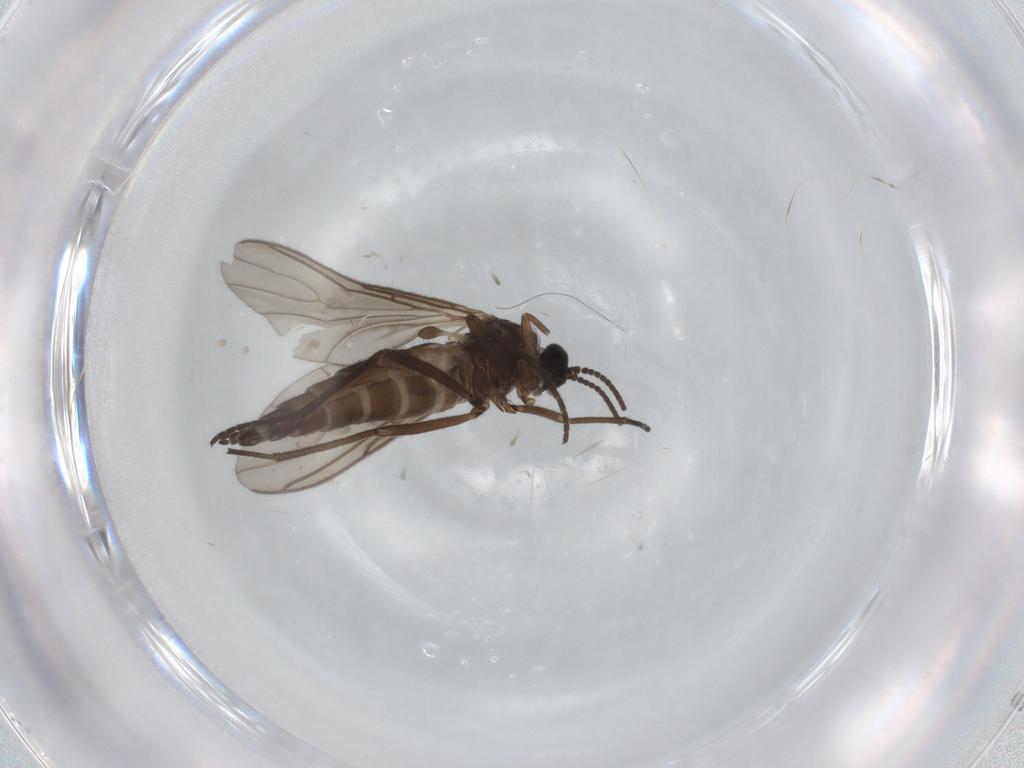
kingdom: Animalia
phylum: Arthropoda
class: Insecta
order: Diptera
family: Sciaridae
